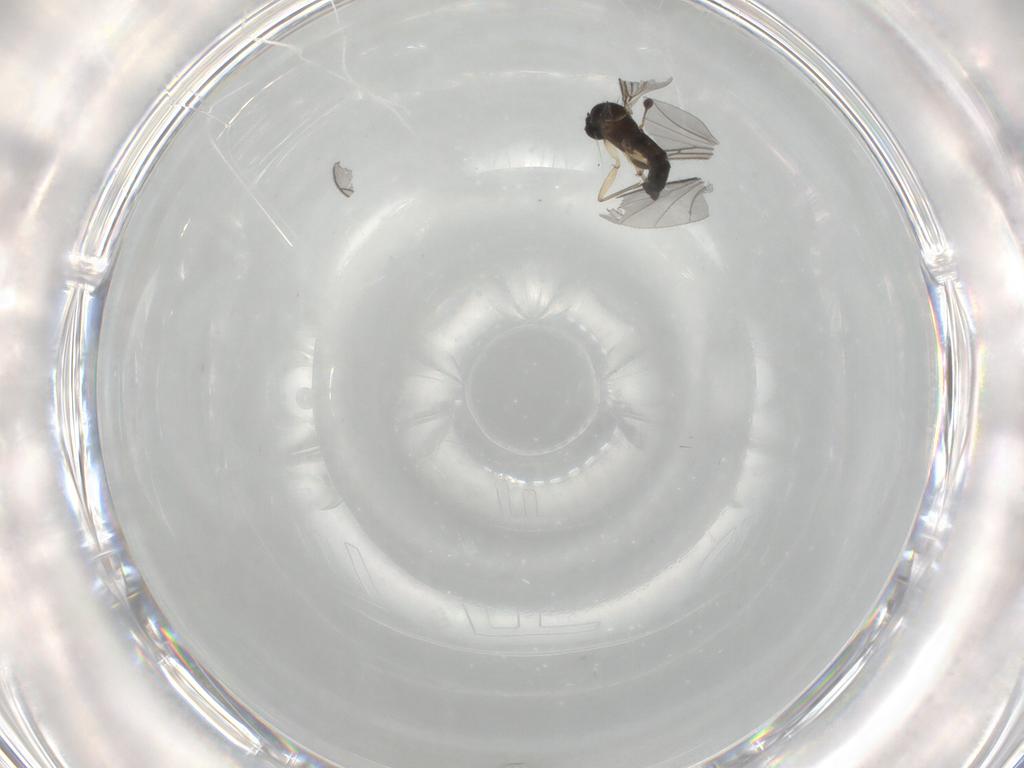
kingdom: Animalia
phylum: Arthropoda
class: Insecta
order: Diptera
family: Sciaridae
